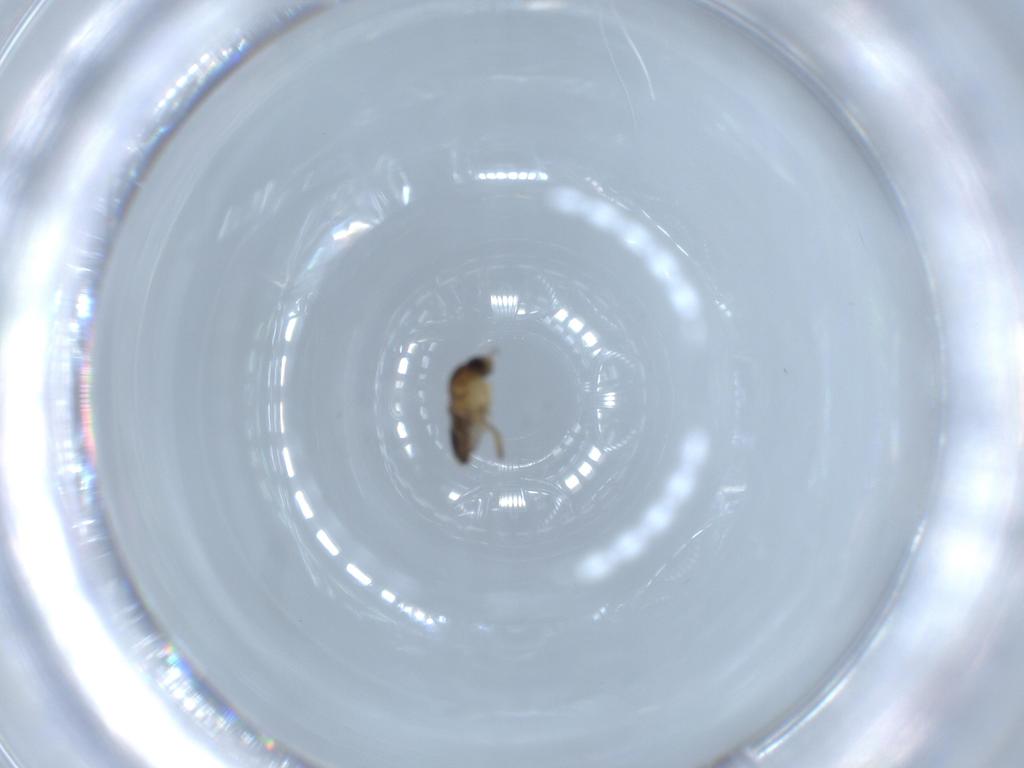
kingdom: Animalia
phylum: Arthropoda
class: Insecta
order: Diptera
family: Phoridae
